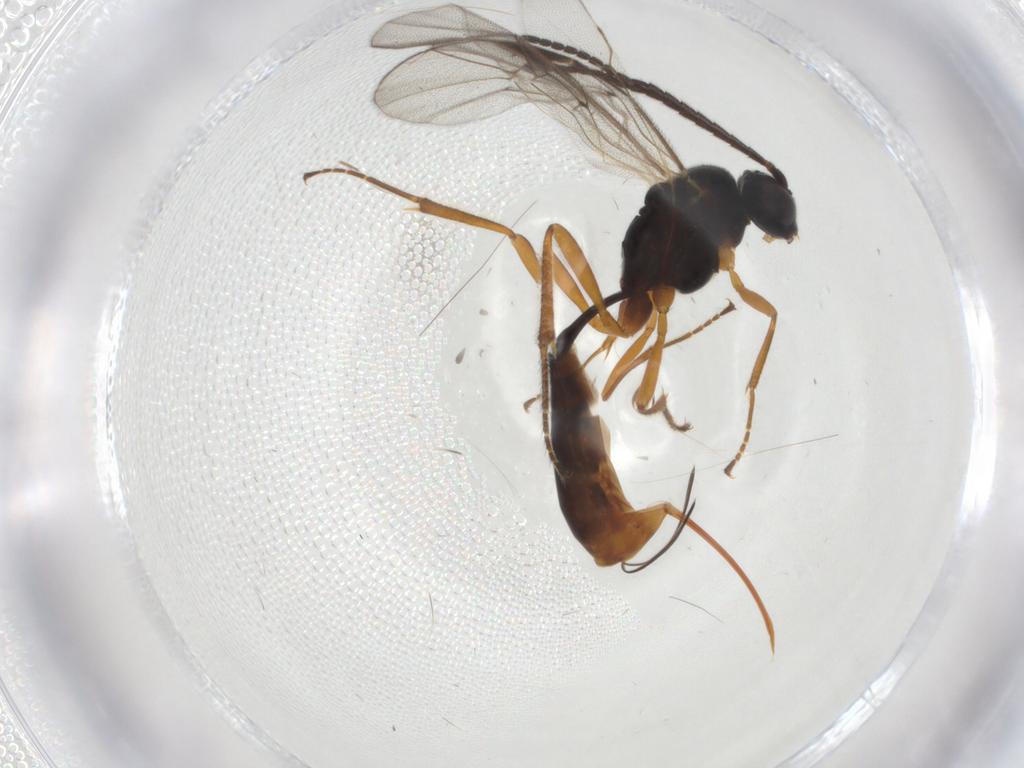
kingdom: Animalia
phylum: Arthropoda
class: Insecta
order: Hymenoptera
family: Ichneumonidae
